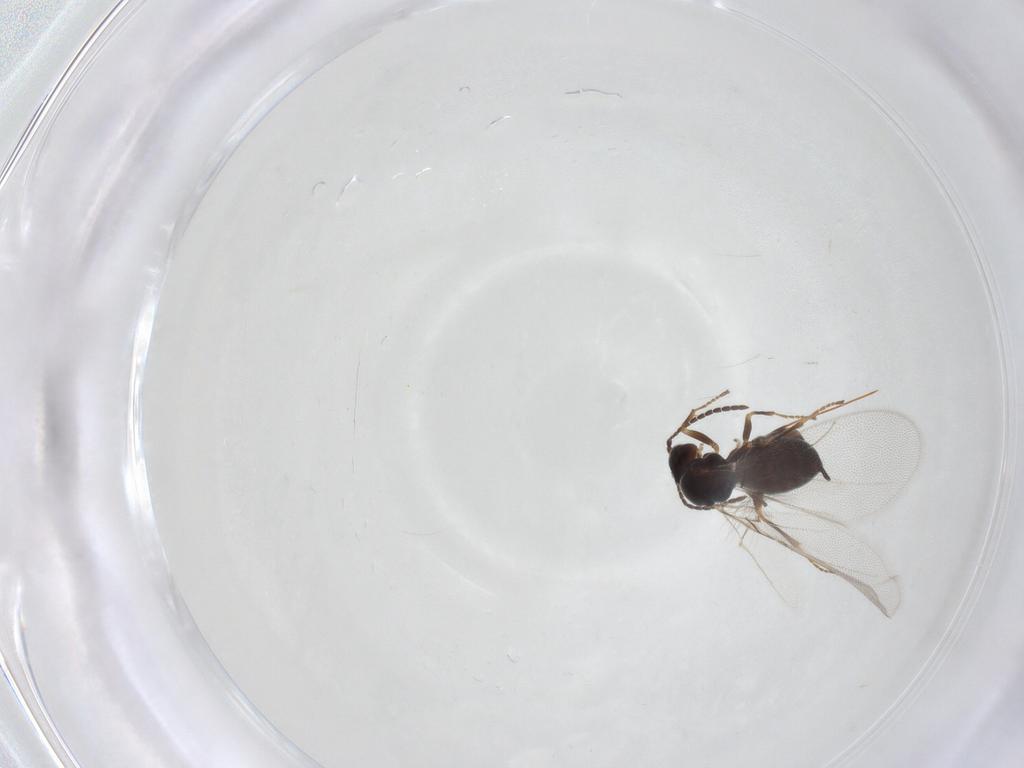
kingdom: Animalia
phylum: Arthropoda
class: Insecta
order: Hymenoptera
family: Cynipidae
